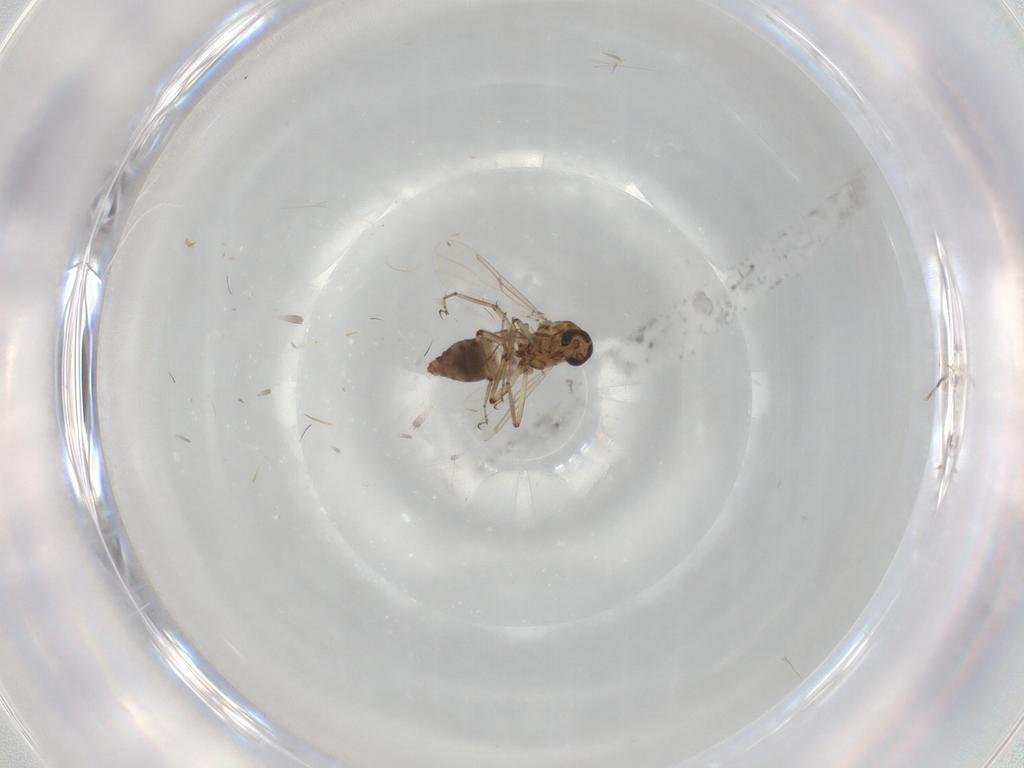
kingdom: Animalia
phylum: Arthropoda
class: Insecta
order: Diptera
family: Ceratopogonidae
